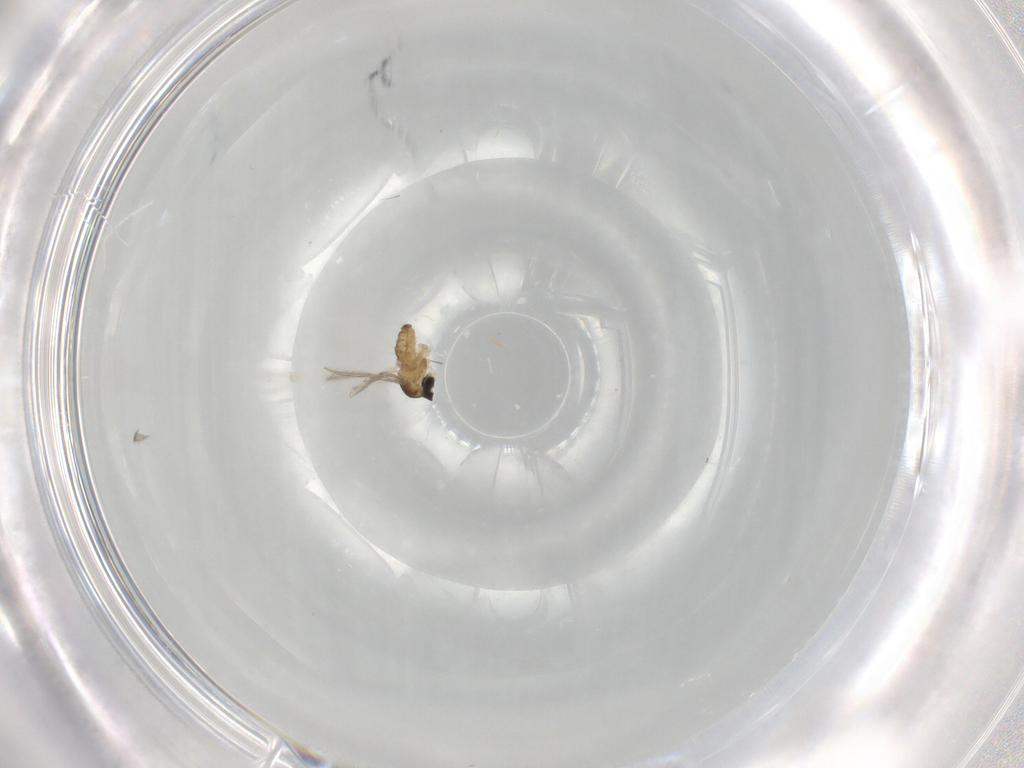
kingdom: Animalia
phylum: Arthropoda
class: Insecta
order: Diptera
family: Cecidomyiidae
